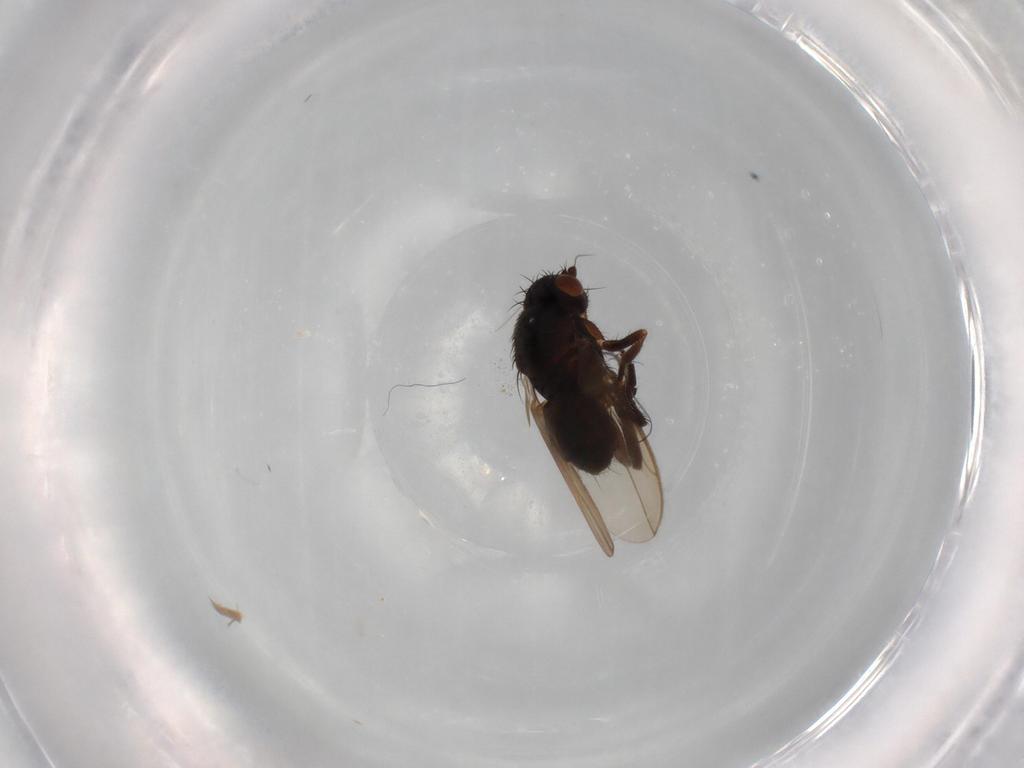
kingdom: Animalia
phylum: Arthropoda
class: Insecta
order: Diptera
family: Sphaeroceridae
